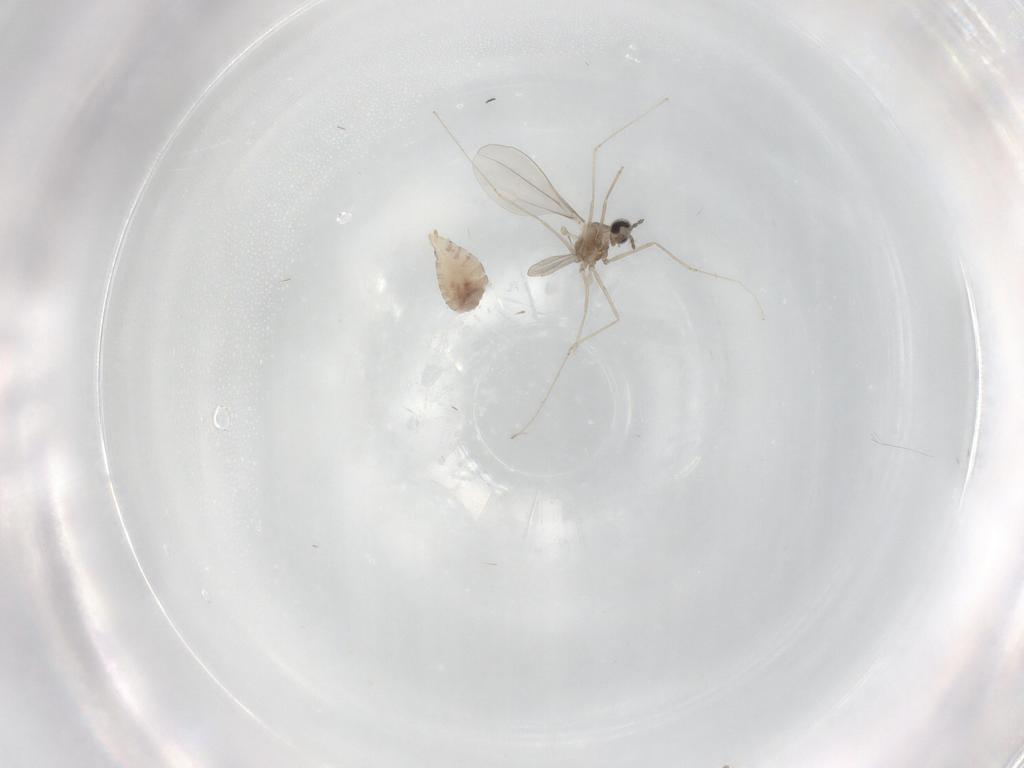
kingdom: Animalia
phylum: Arthropoda
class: Insecta
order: Diptera
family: Cecidomyiidae
